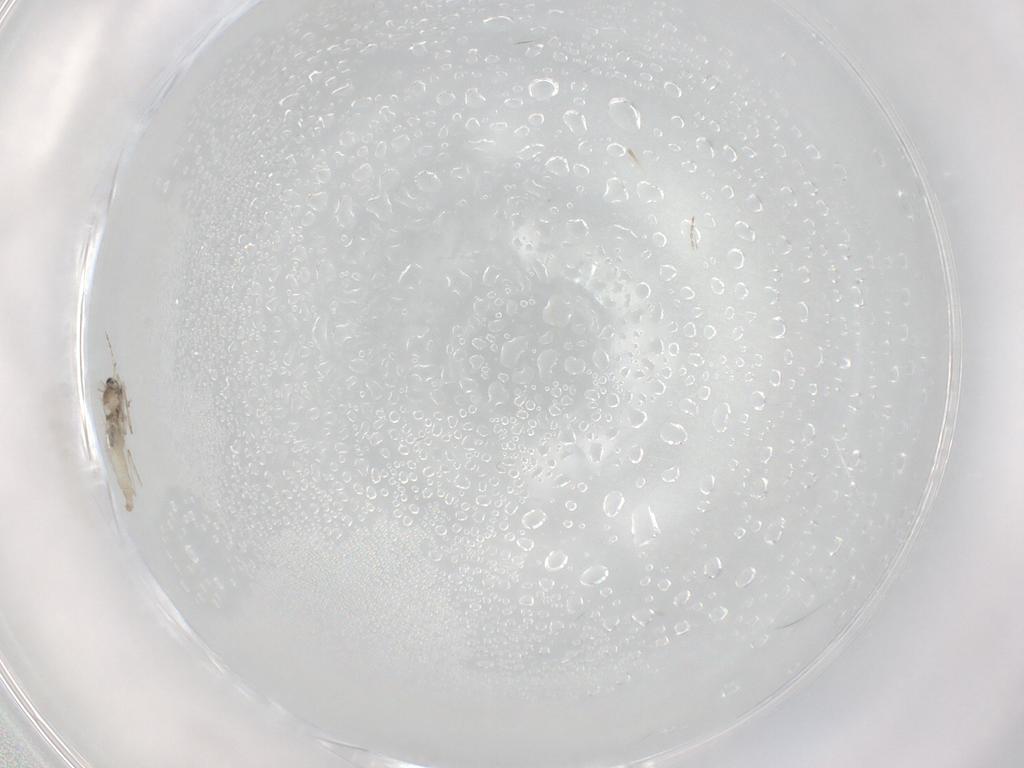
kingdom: Animalia
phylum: Arthropoda
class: Insecta
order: Diptera
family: Cecidomyiidae
